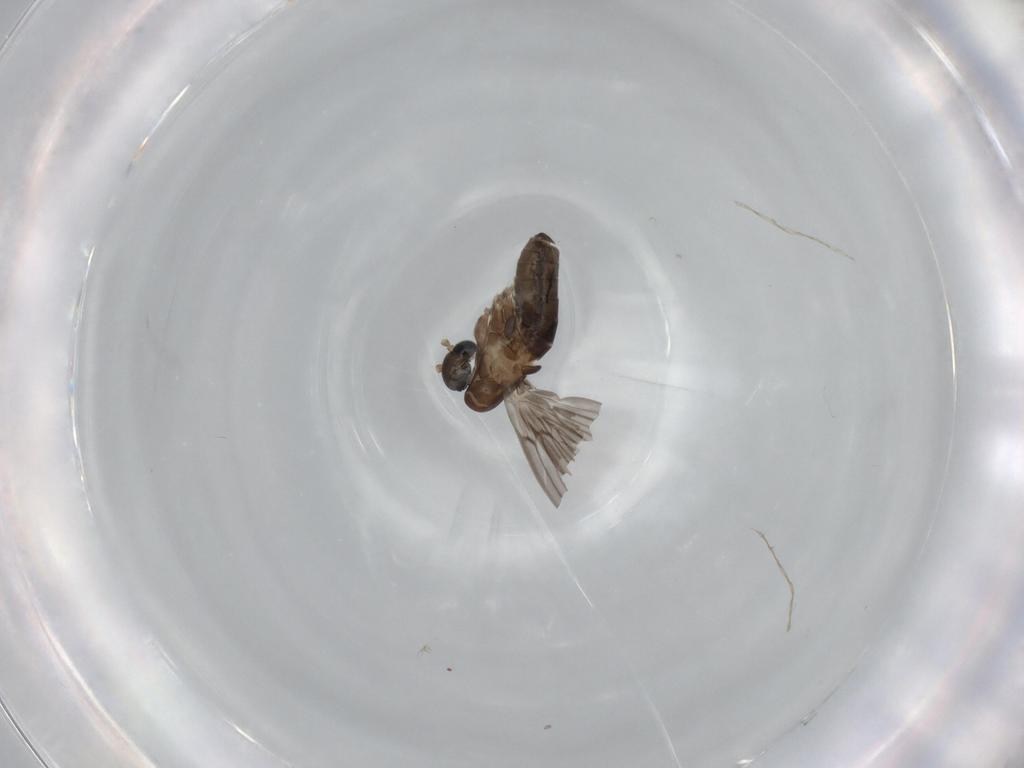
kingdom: Animalia
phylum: Arthropoda
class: Insecta
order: Diptera
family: Psychodidae
